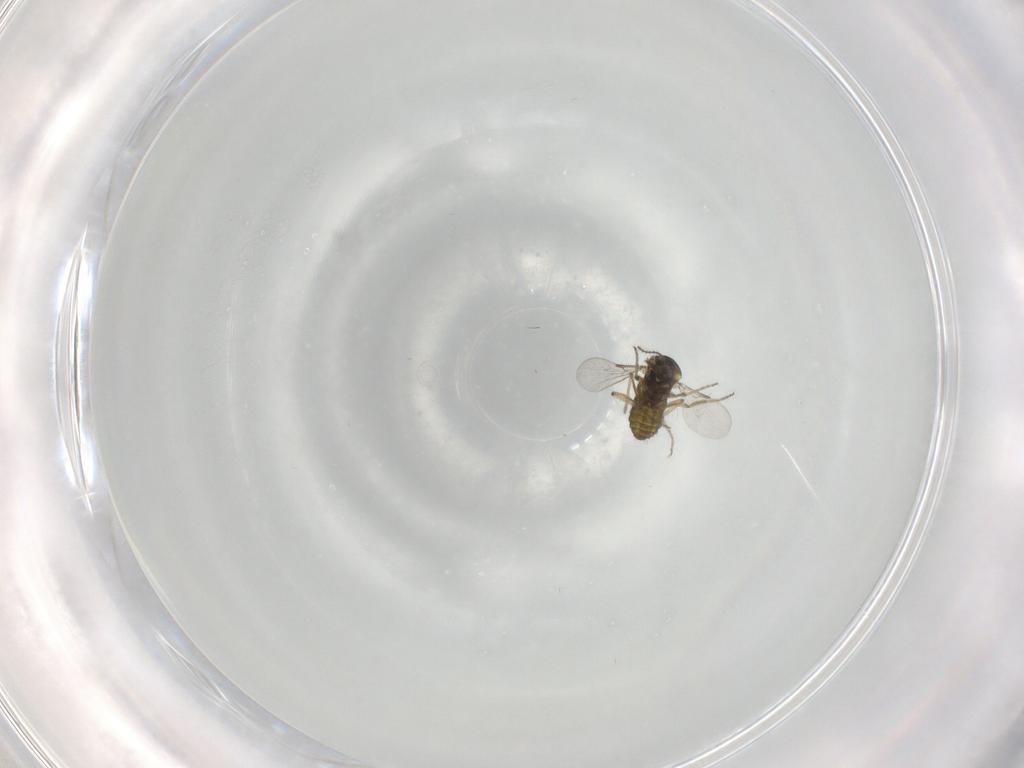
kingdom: Animalia
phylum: Arthropoda
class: Insecta
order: Diptera
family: Ceratopogonidae
